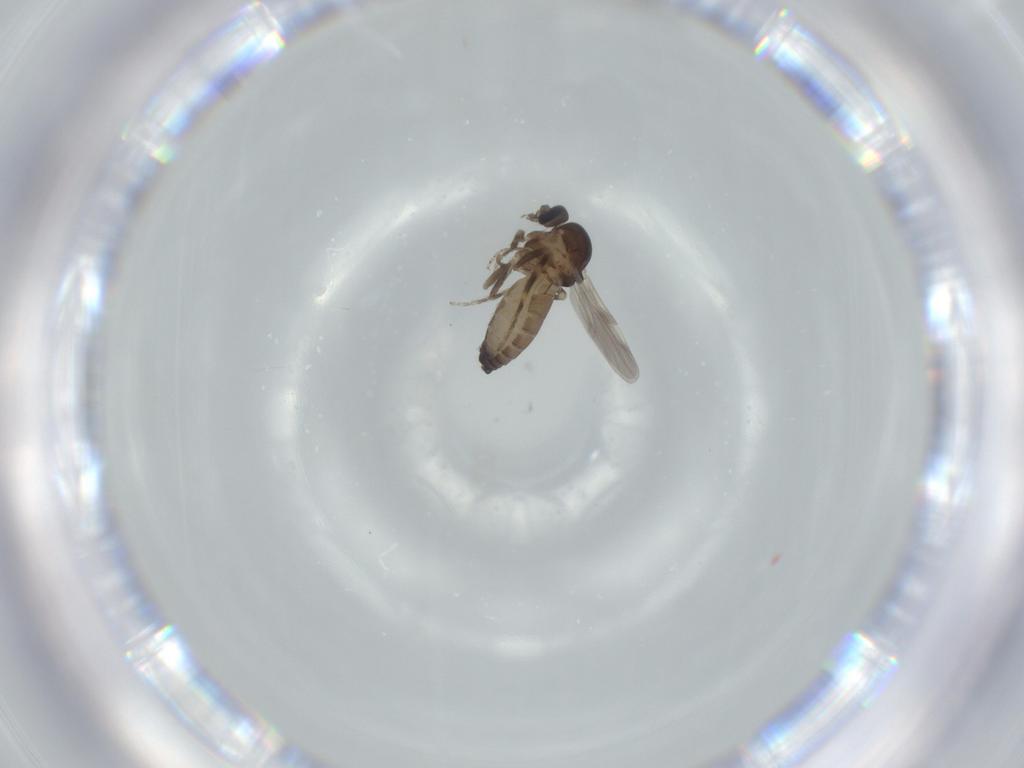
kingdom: Animalia
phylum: Arthropoda
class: Insecta
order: Diptera
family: Ceratopogonidae
